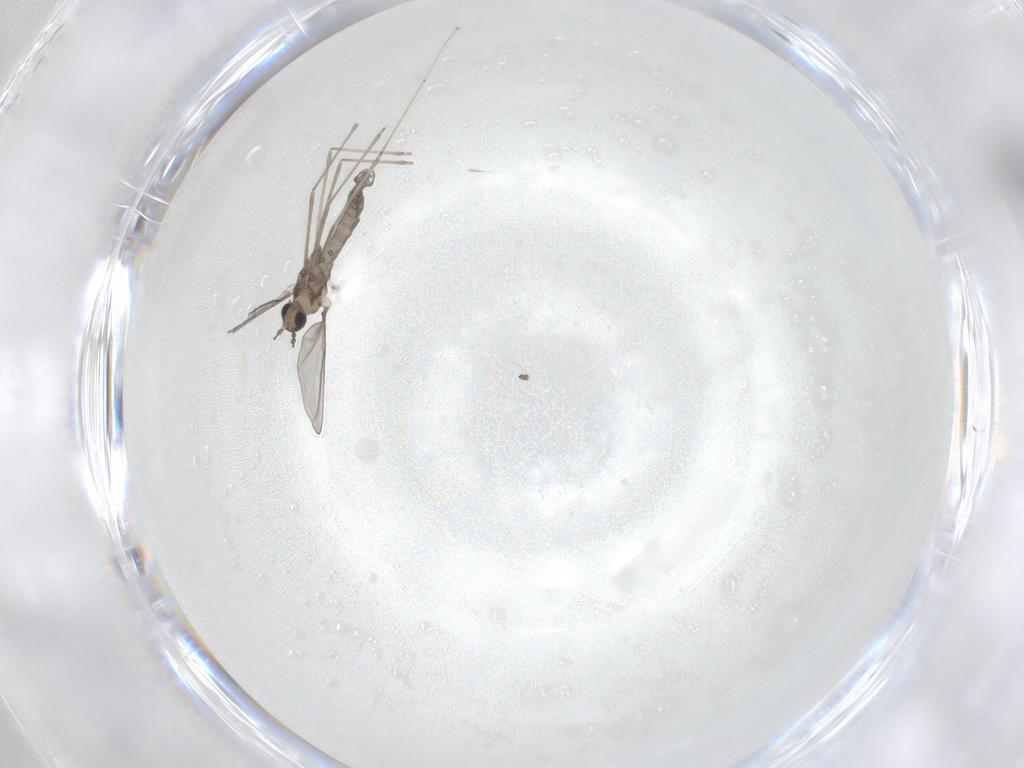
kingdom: Animalia
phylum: Arthropoda
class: Insecta
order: Diptera
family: Cecidomyiidae
